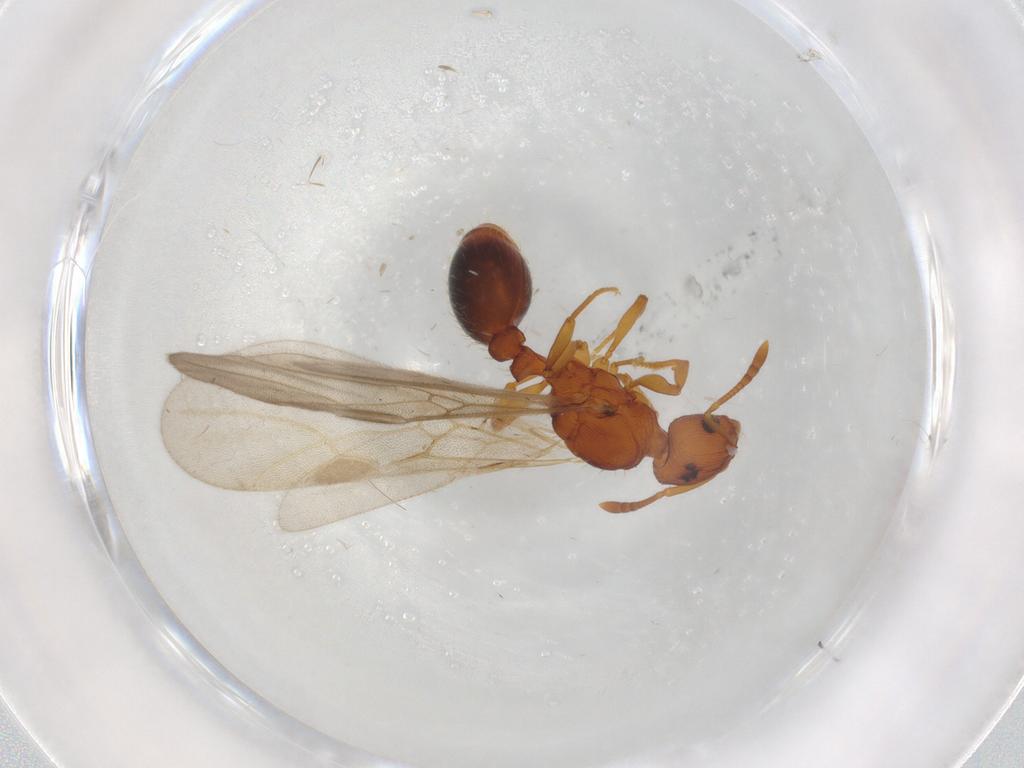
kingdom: Animalia
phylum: Arthropoda
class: Insecta
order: Hymenoptera
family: Formicidae
